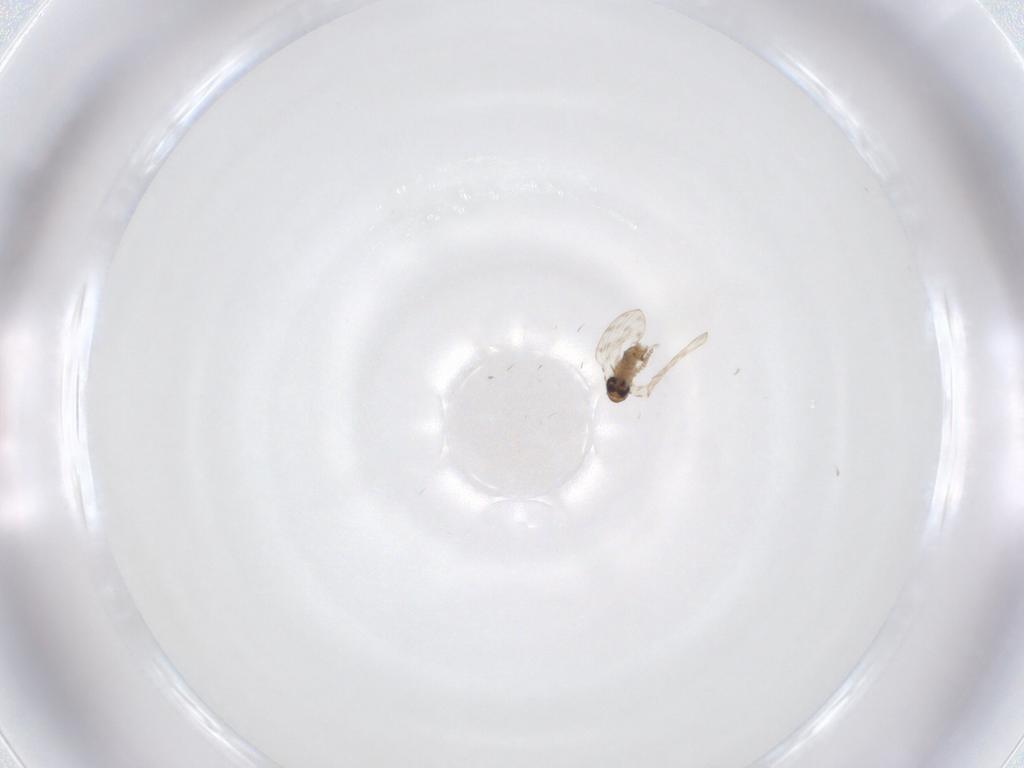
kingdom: Animalia
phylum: Arthropoda
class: Insecta
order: Diptera
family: Psychodidae
